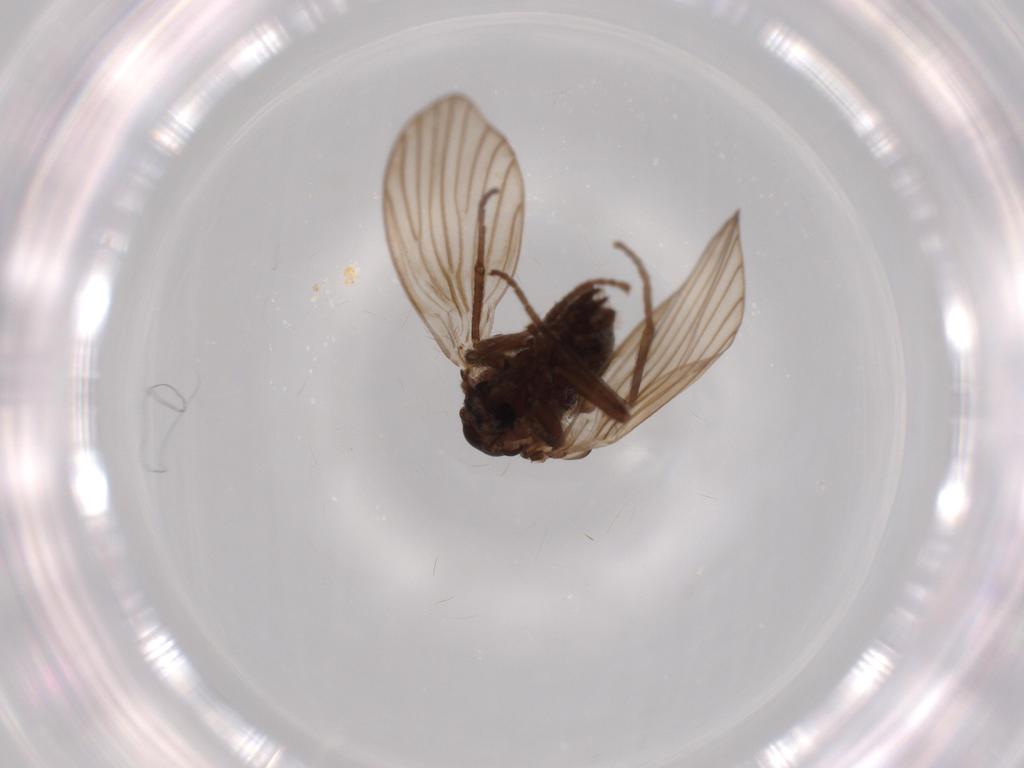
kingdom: Animalia
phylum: Arthropoda
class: Insecta
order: Diptera
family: Psychodidae
